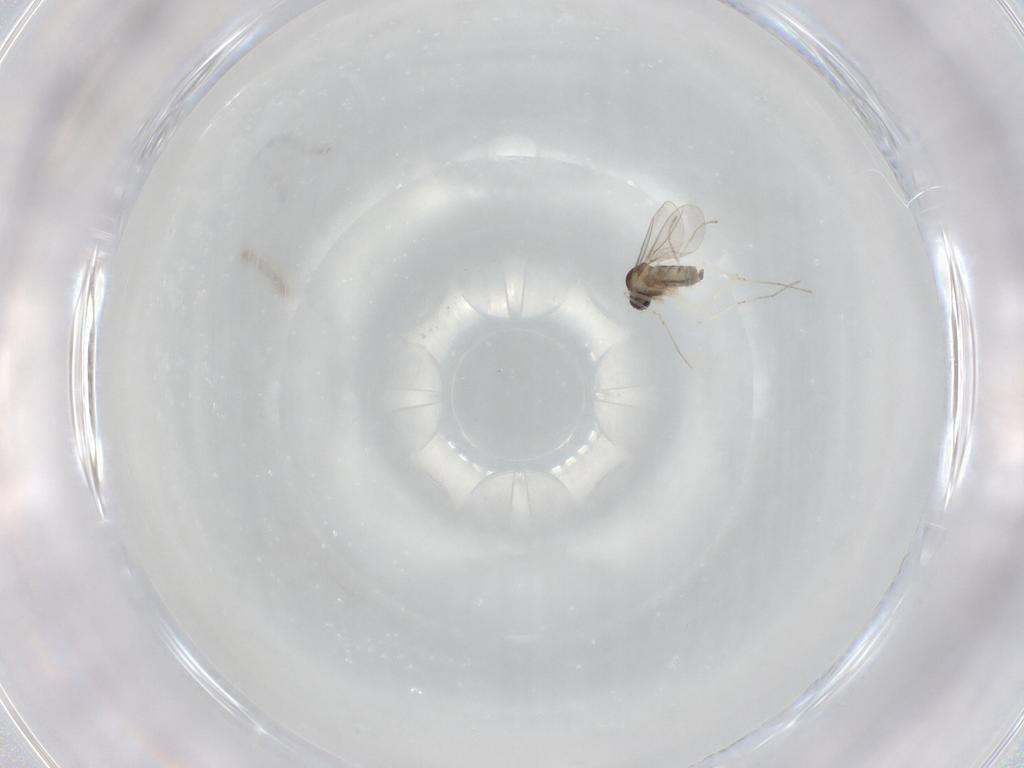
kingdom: Animalia
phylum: Arthropoda
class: Insecta
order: Diptera
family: Cecidomyiidae
